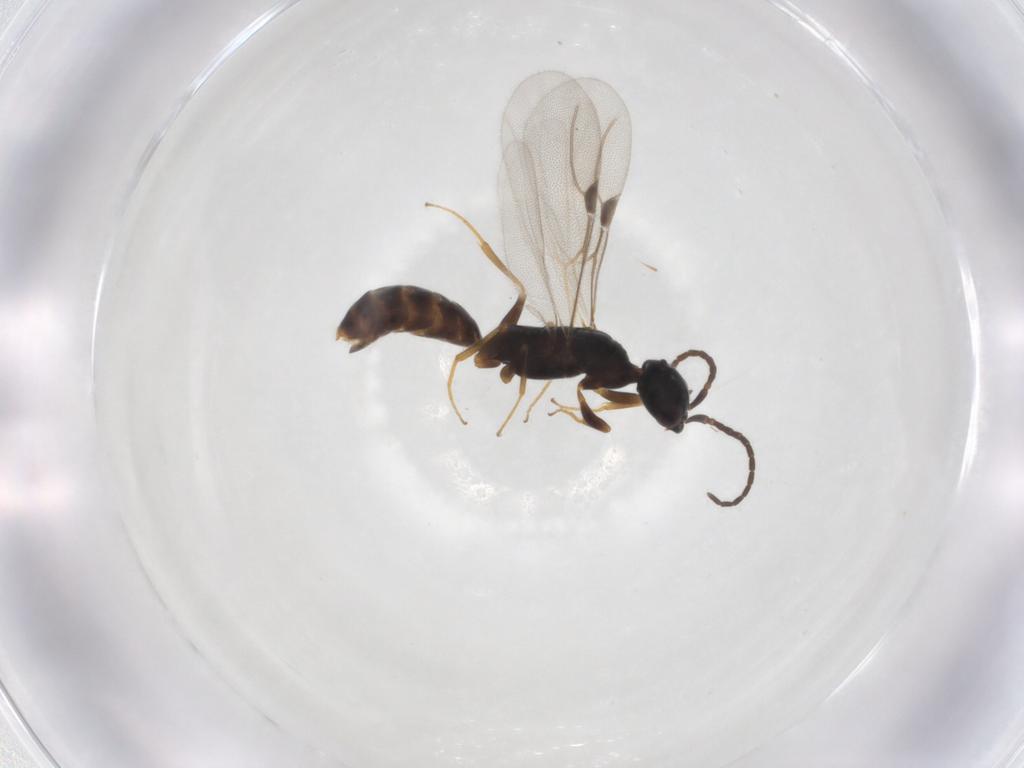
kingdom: Animalia
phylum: Arthropoda
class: Insecta
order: Hymenoptera
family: Bethylidae
